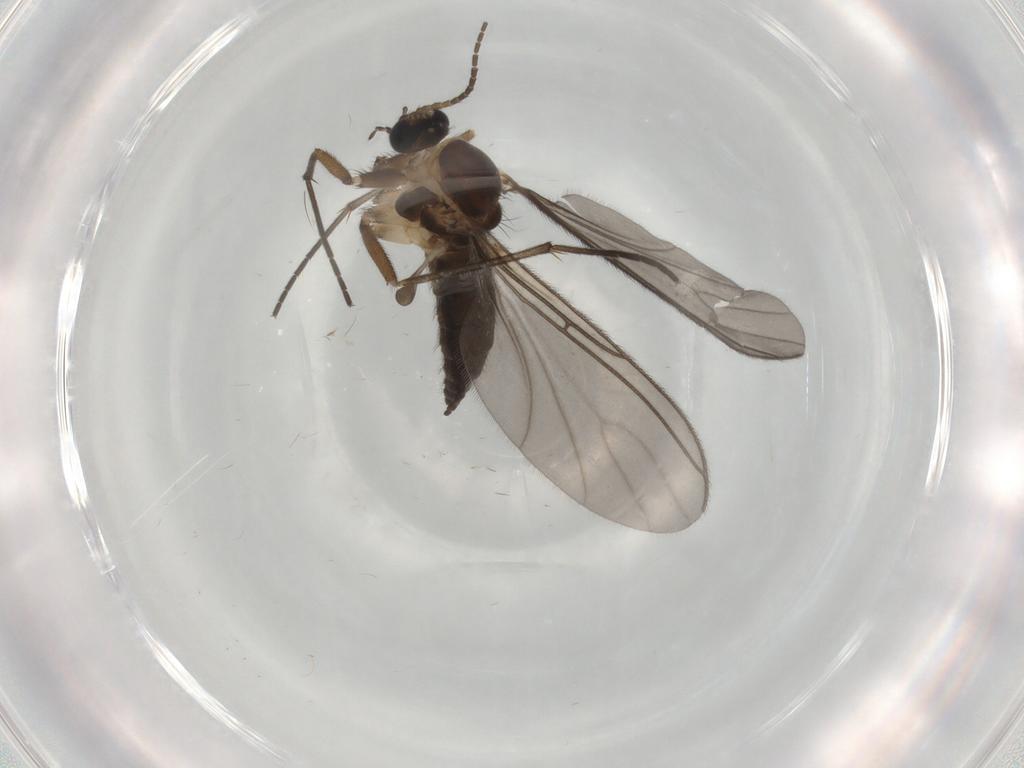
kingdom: Animalia
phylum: Arthropoda
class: Insecta
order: Diptera
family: Sciaridae
